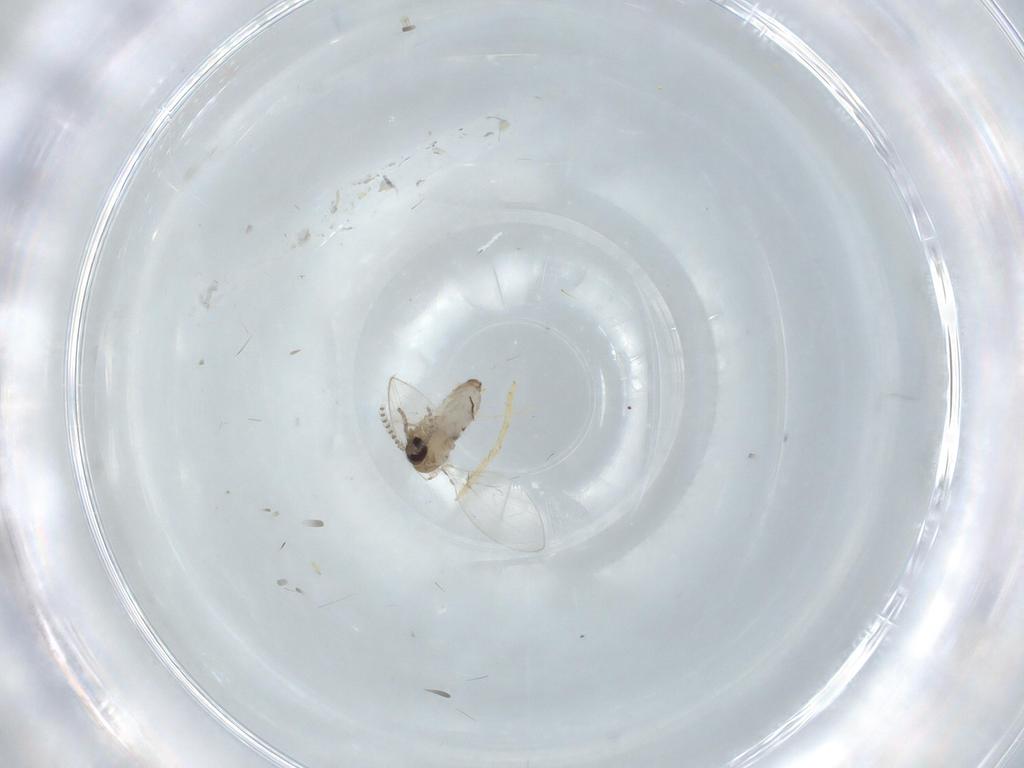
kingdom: Animalia
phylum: Arthropoda
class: Insecta
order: Diptera
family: Psychodidae
